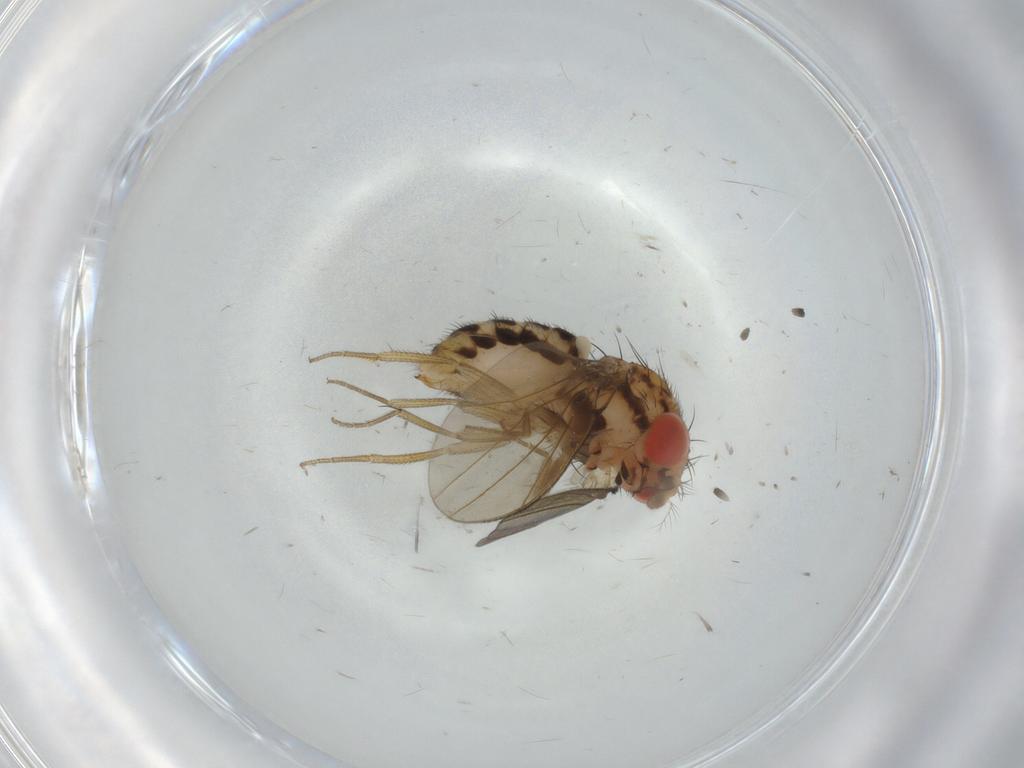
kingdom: Animalia
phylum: Arthropoda
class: Insecta
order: Diptera
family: Drosophilidae
